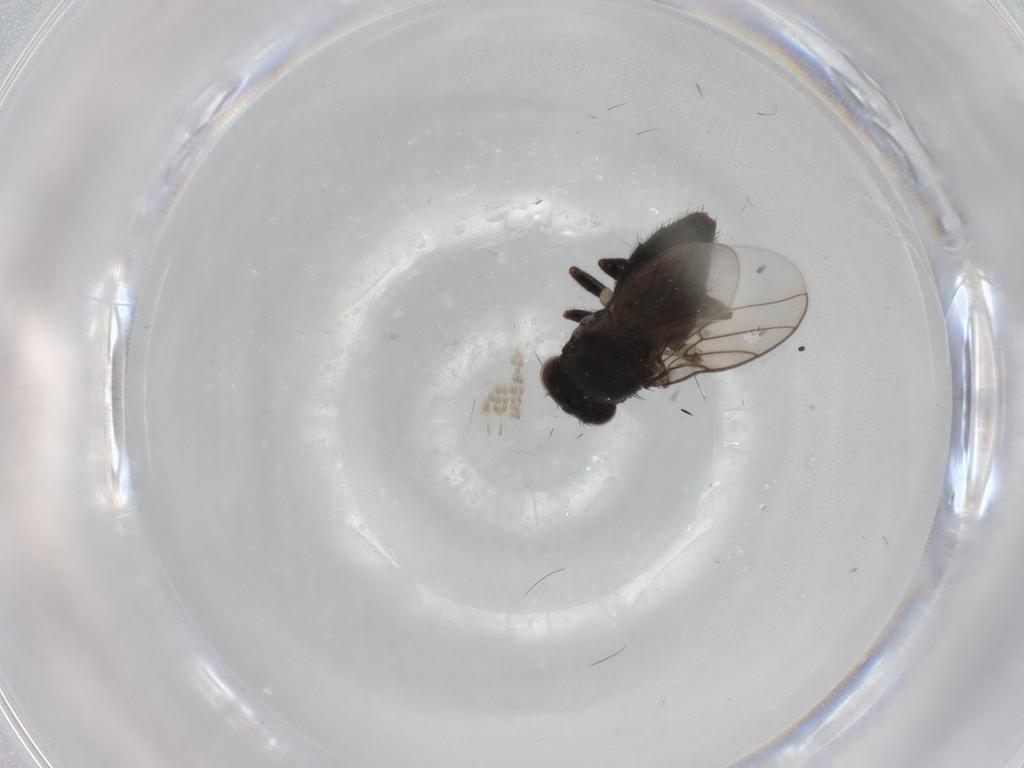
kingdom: Animalia
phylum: Arthropoda
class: Insecta
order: Diptera
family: Chloropidae
